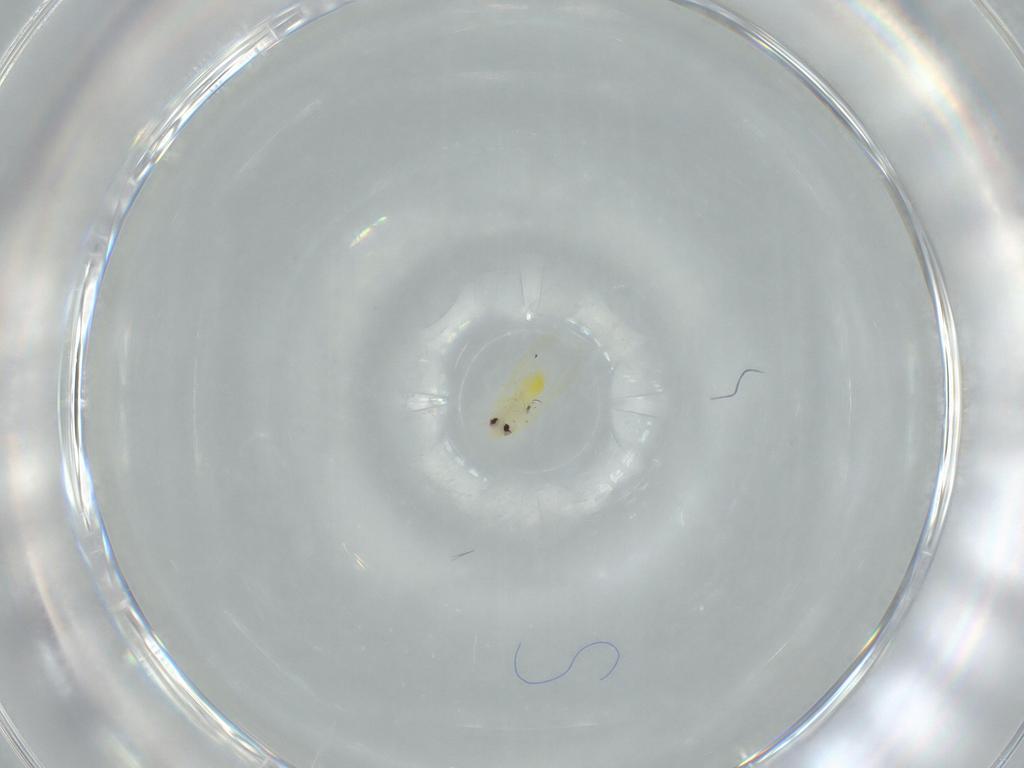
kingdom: Animalia
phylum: Arthropoda
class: Insecta
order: Hemiptera
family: Aleyrodidae
